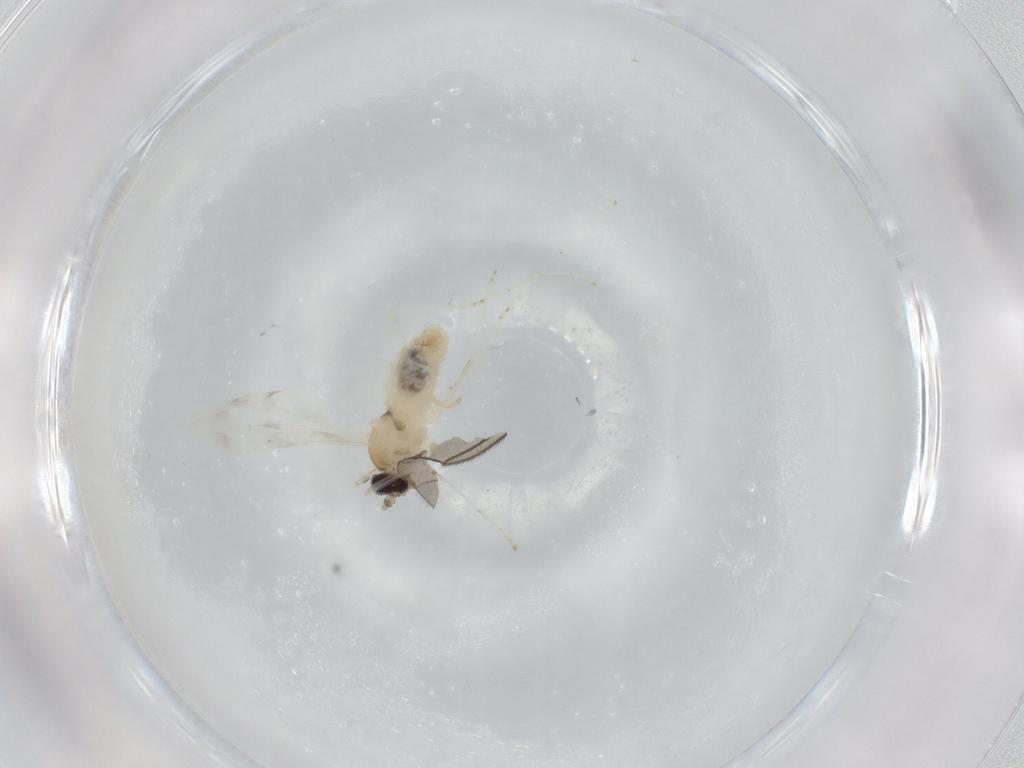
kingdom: Animalia
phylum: Arthropoda
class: Insecta
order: Diptera
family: Cecidomyiidae
